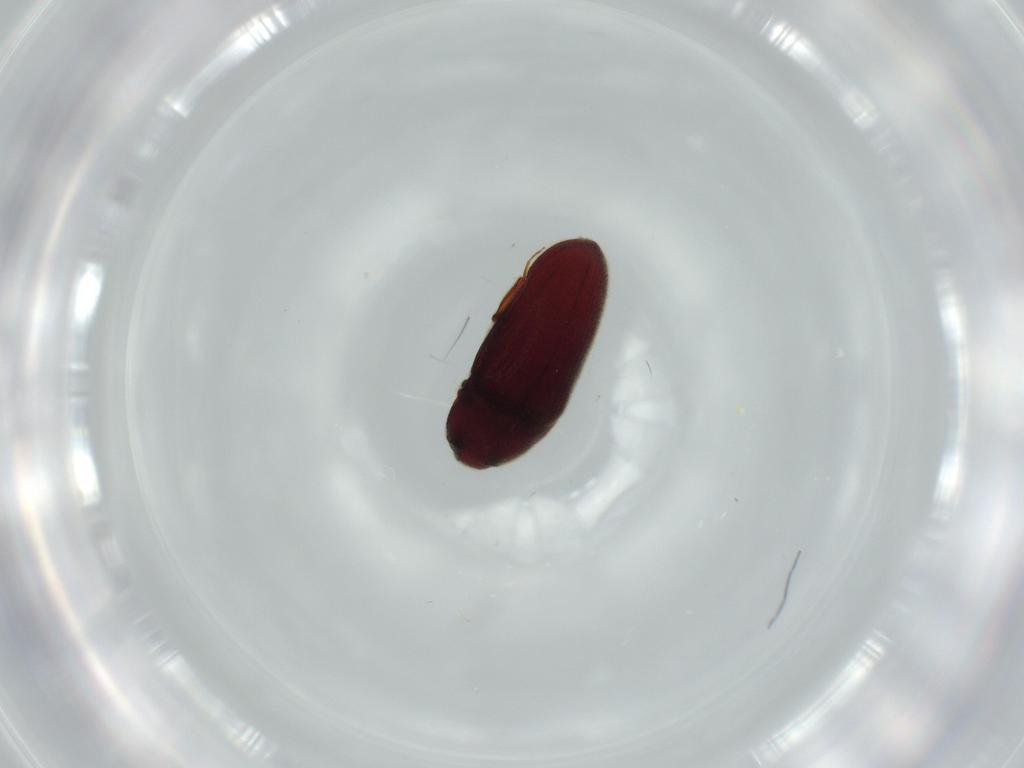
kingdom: Animalia
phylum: Arthropoda
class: Insecta
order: Coleoptera
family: Throscidae
